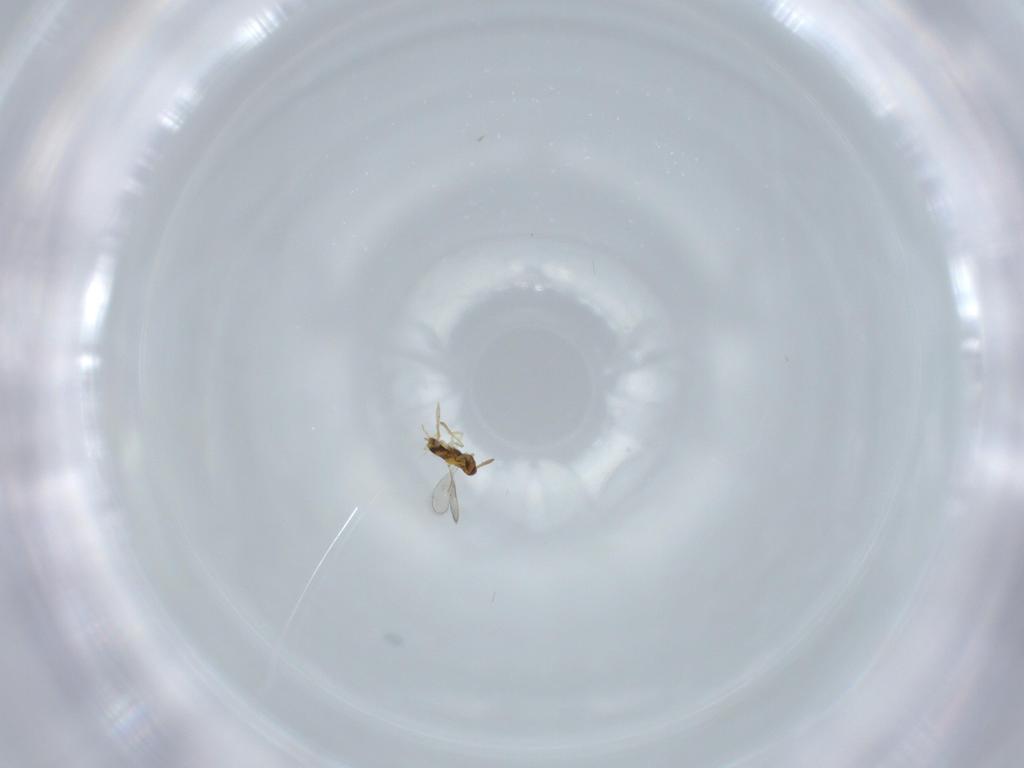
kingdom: Animalia
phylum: Arthropoda
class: Insecta
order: Hymenoptera
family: Aphelinidae
